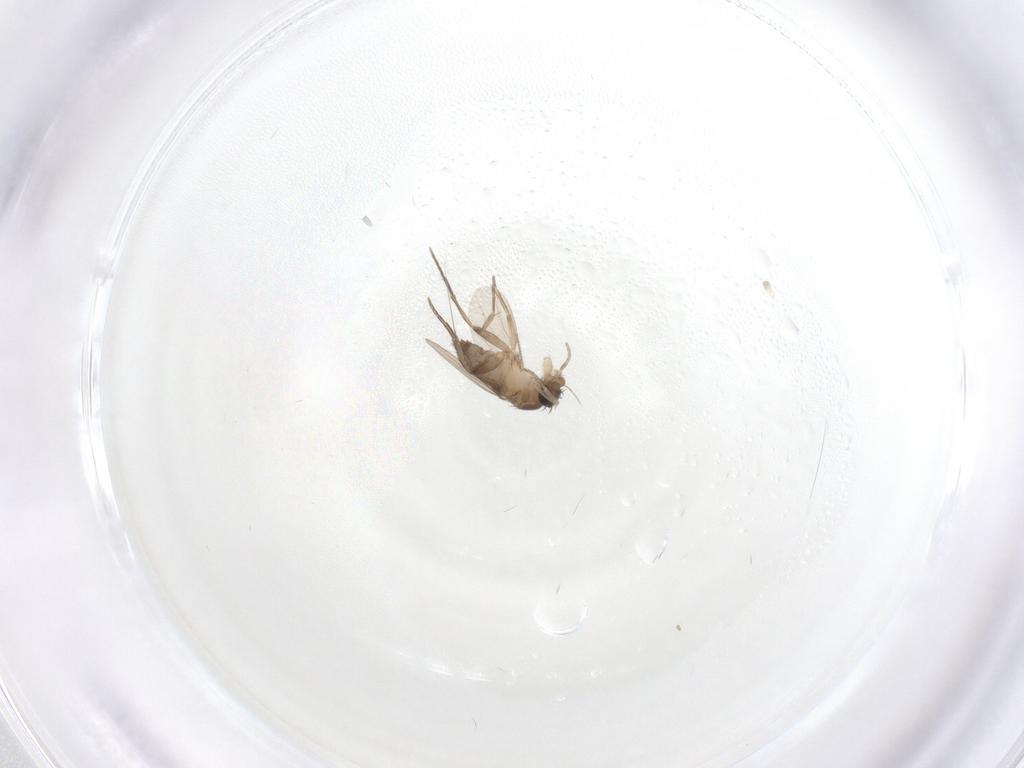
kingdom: Animalia
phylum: Arthropoda
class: Insecta
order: Diptera
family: Phoridae
